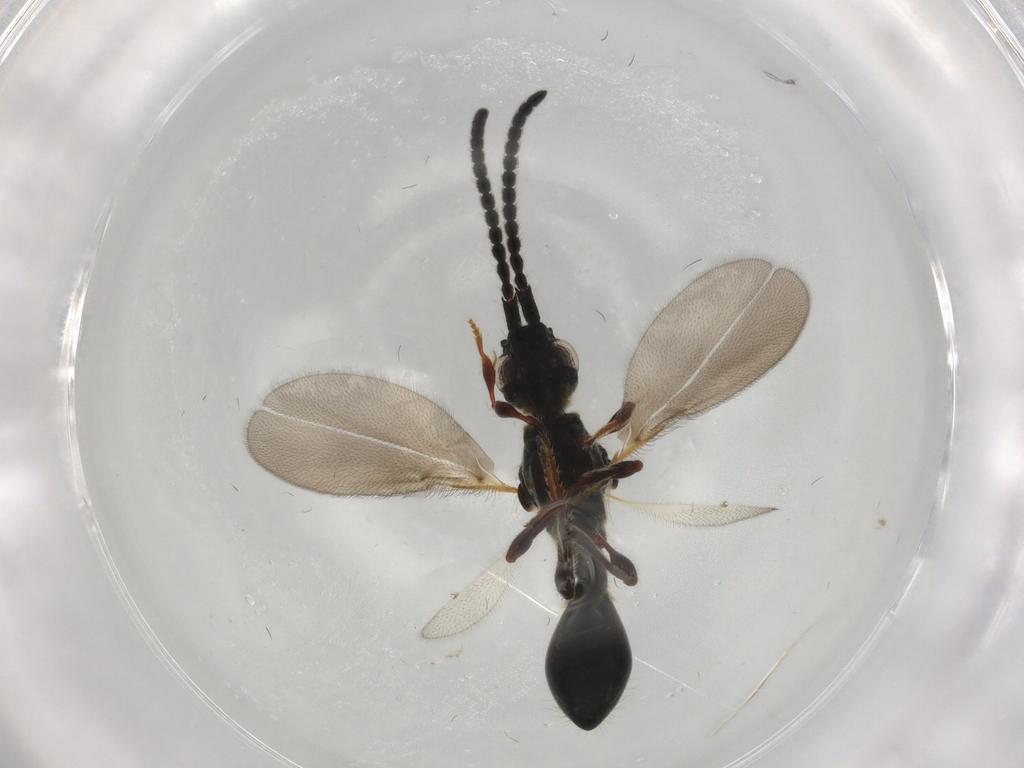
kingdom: Animalia
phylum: Arthropoda
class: Insecta
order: Hymenoptera
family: Diapriidae
